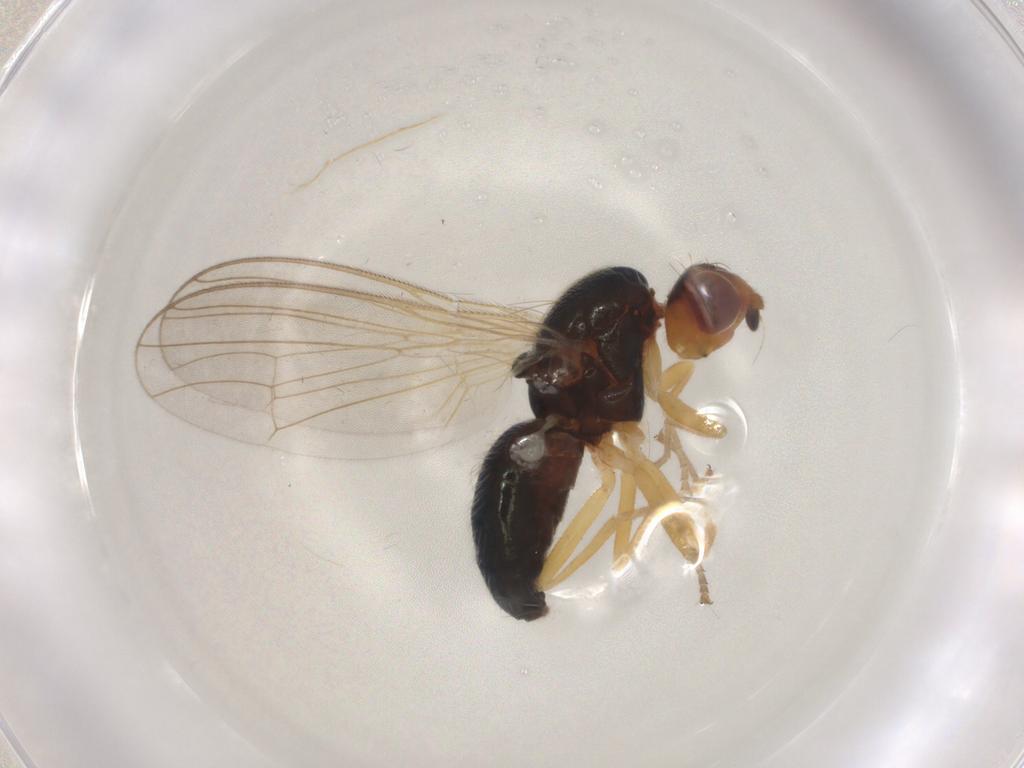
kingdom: Animalia
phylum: Arthropoda
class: Insecta
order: Diptera
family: Psilidae
